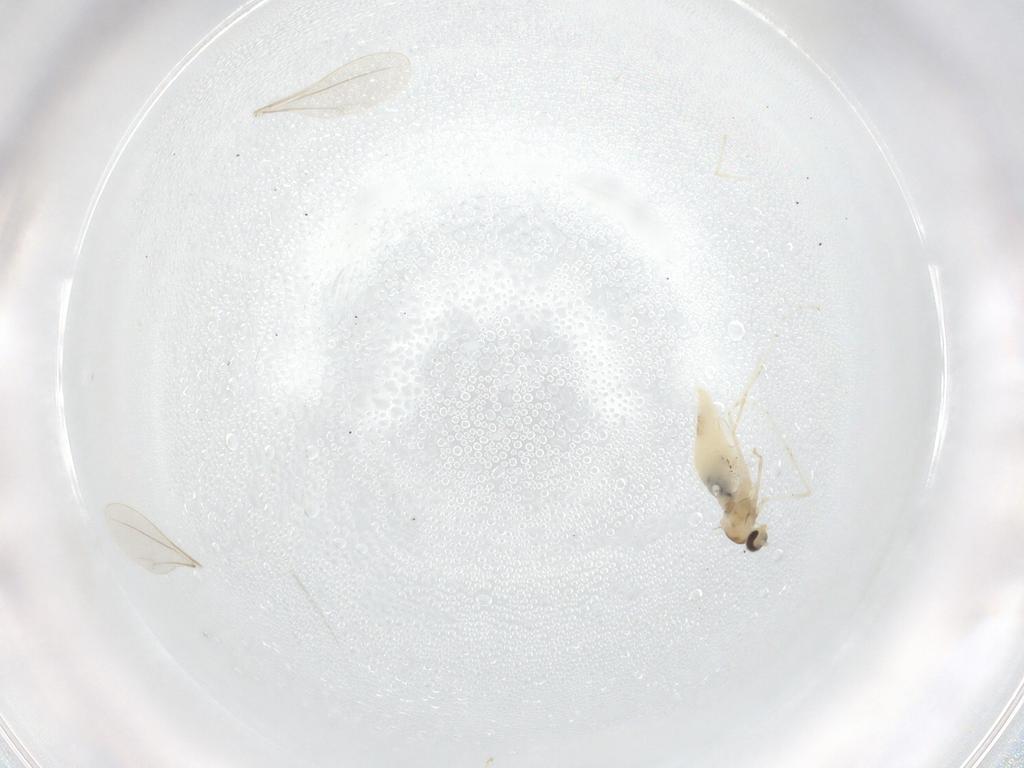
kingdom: Animalia
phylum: Arthropoda
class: Insecta
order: Diptera
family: Cecidomyiidae
